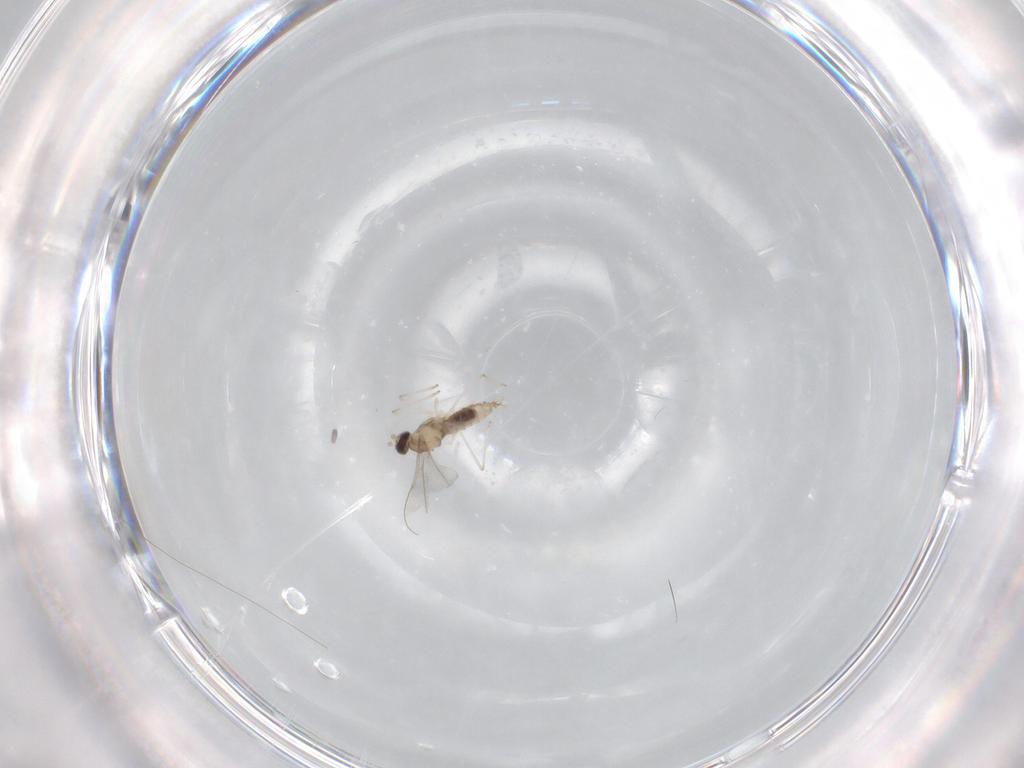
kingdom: Animalia
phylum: Arthropoda
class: Insecta
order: Diptera
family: Cecidomyiidae
